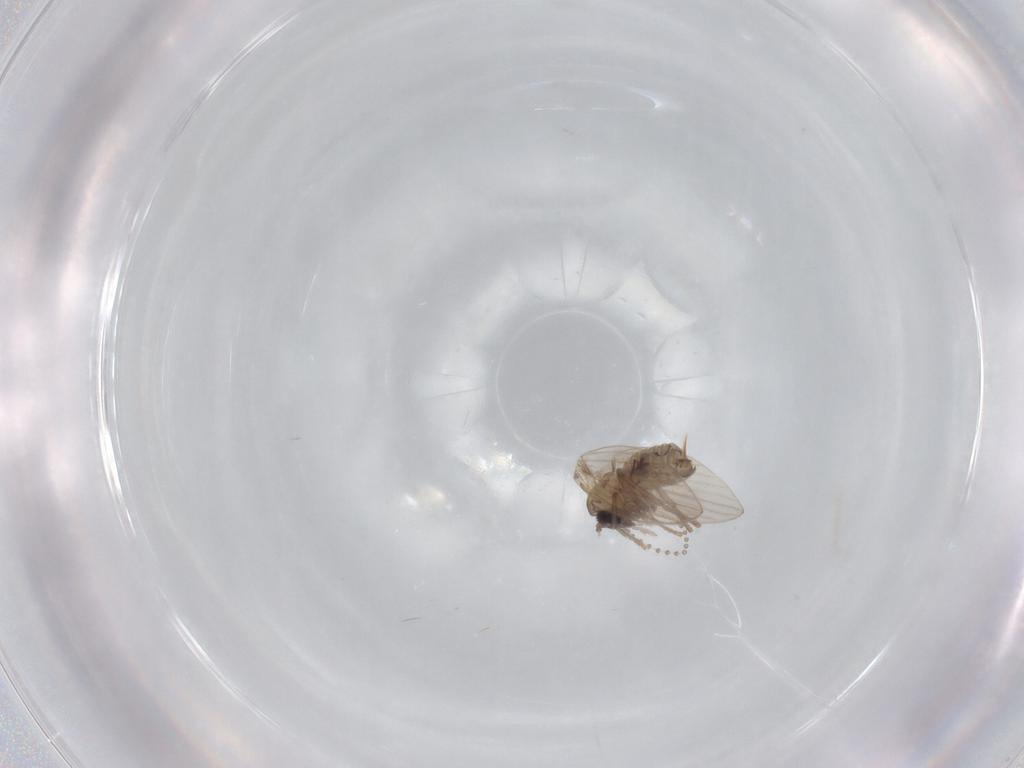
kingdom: Animalia
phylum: Arthropoda
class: Insecta
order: Diptera
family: Psychodidae
